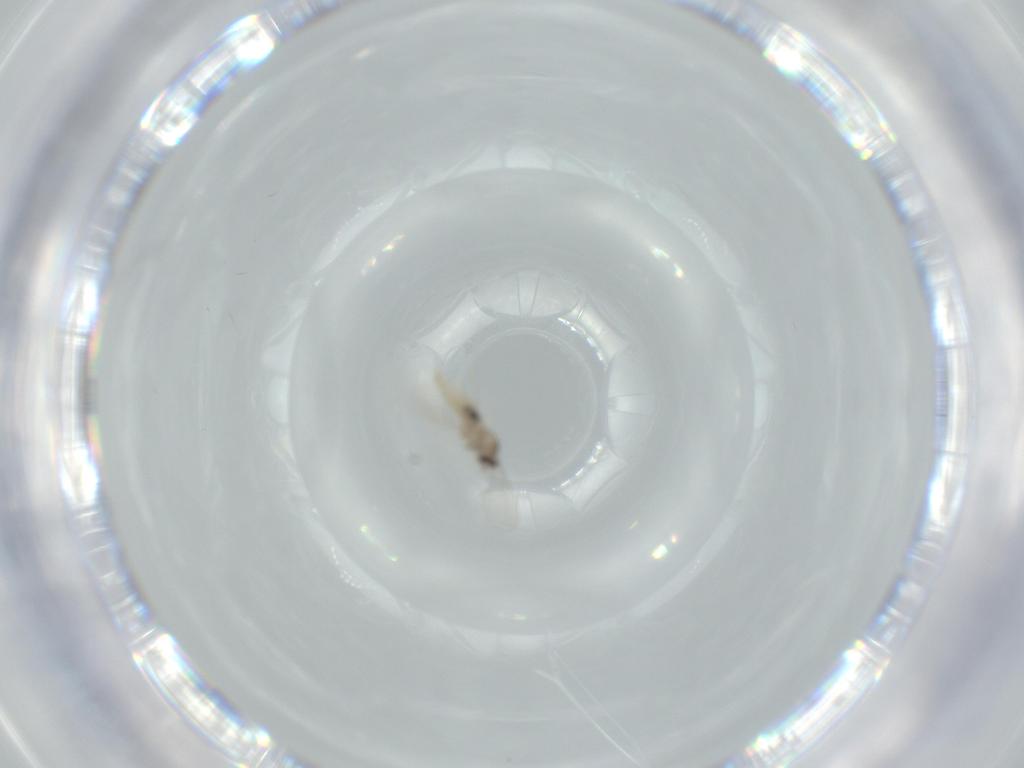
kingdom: Animalia
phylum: Arthropoda
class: Insecta
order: Diptera
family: Cecidomyiidae
